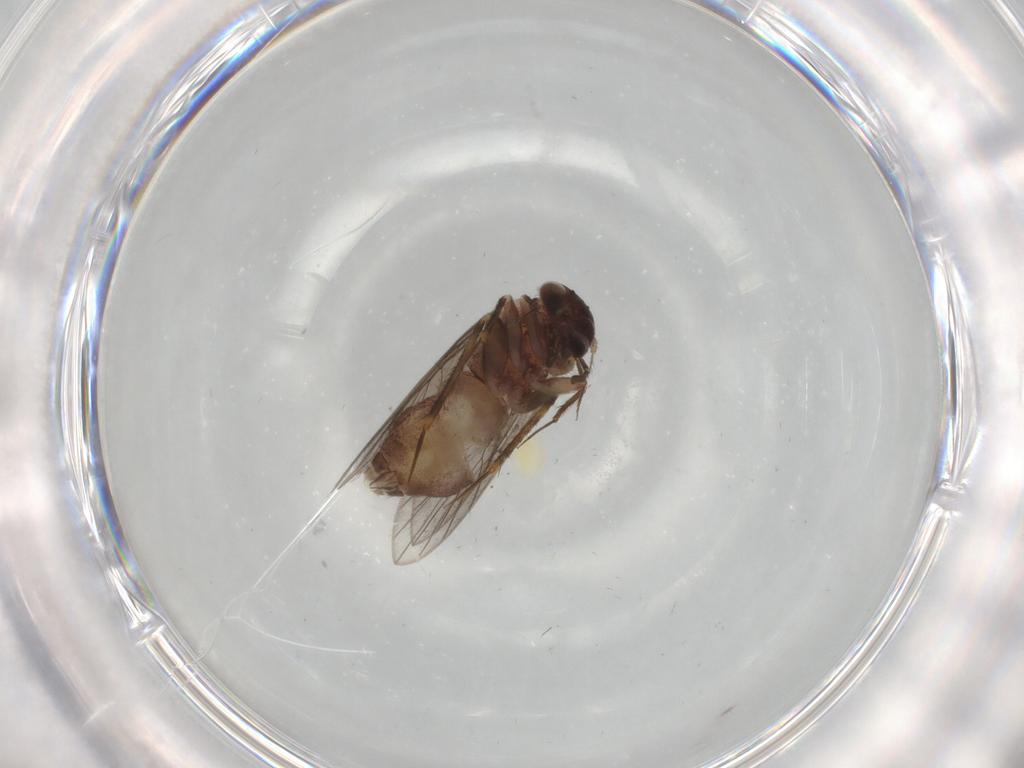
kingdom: Animalia
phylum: Arthropoda
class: Insecta
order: Psocodea
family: Lepidopsocidae
